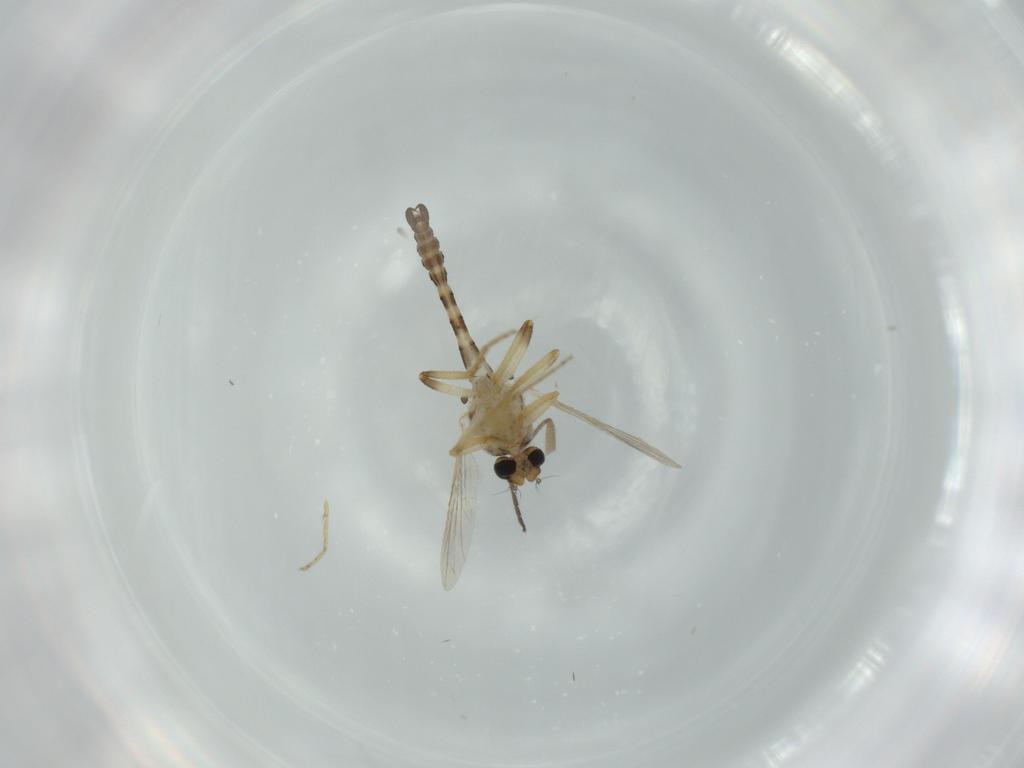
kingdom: Animalia
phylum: Arthropoda
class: Insecta
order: Diptera
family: Ceratopogonidae
